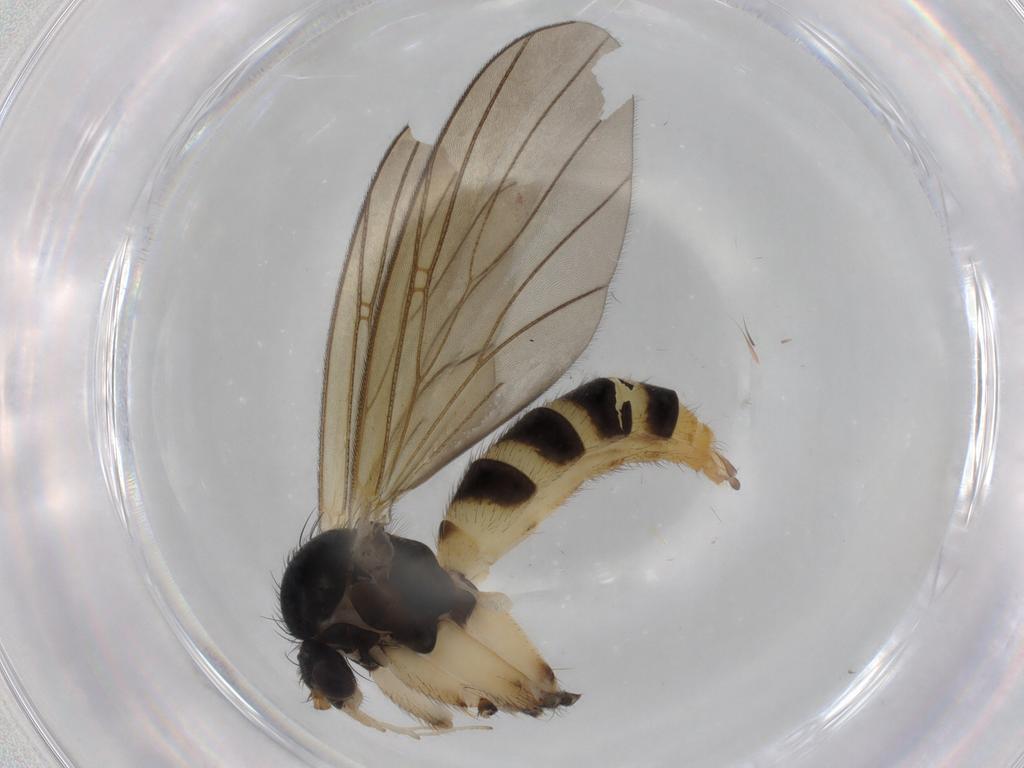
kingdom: Animalia
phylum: Arthropoda
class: Insecta
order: Diptera
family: Mycetophilidae
